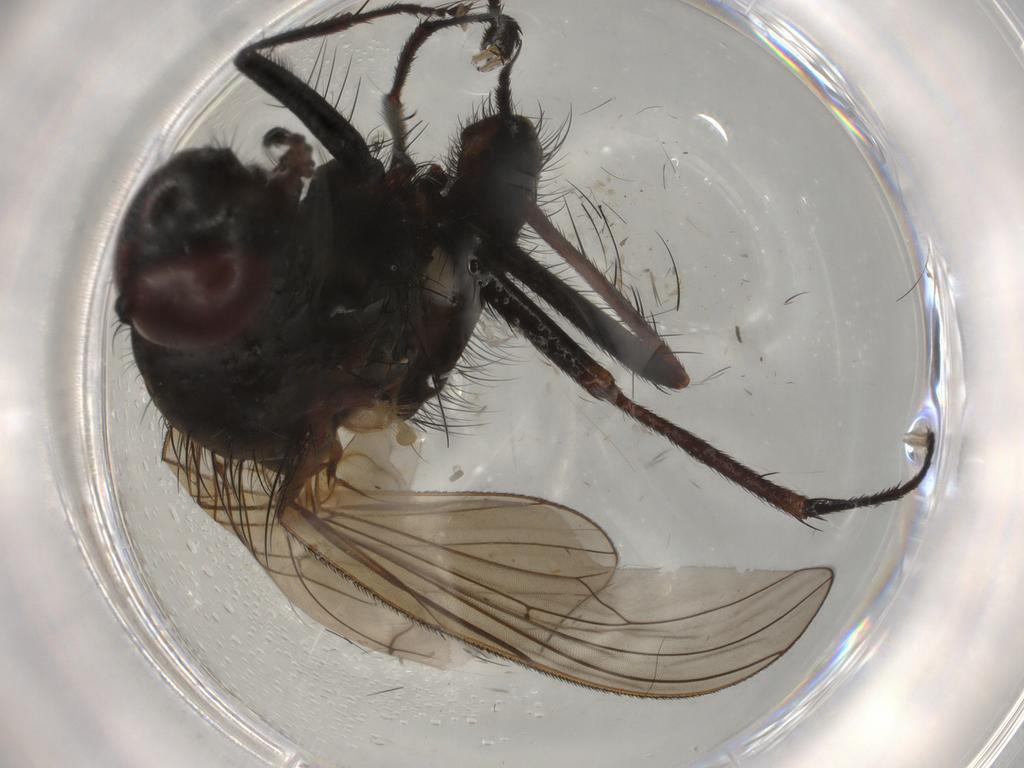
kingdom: Animalia
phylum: Arthropoda
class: Insecta
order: Diptera
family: Anthomyiidae
